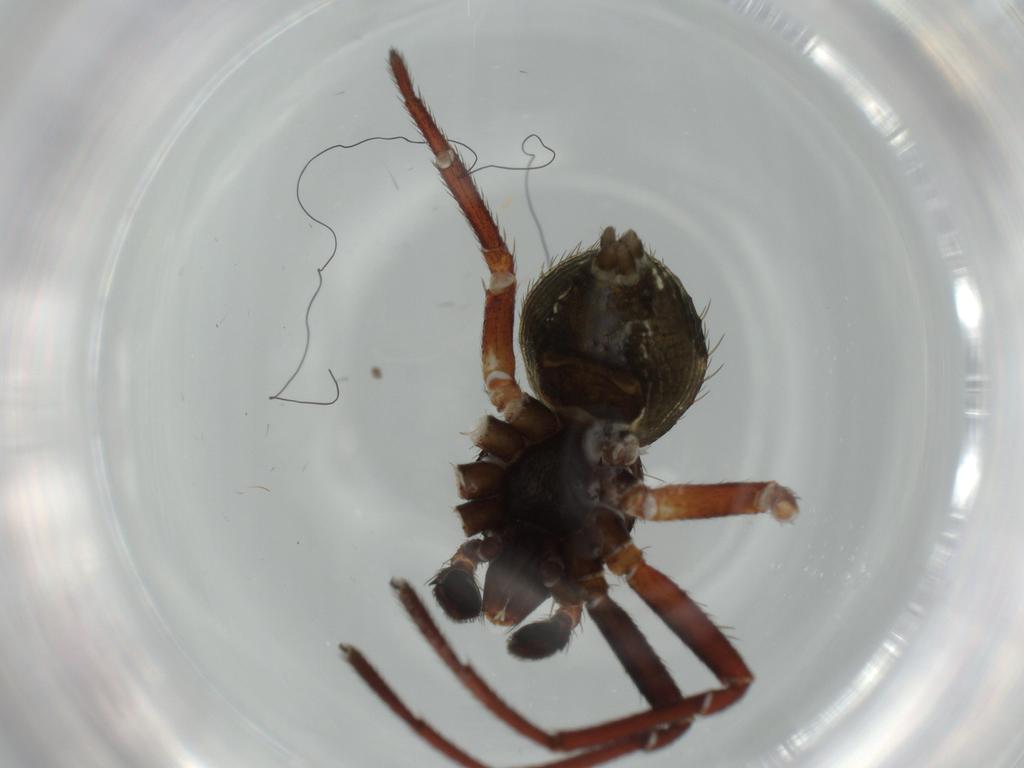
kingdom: Animalia
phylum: Arthropoda
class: Arachnida
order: Araneae
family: Thomisidae
